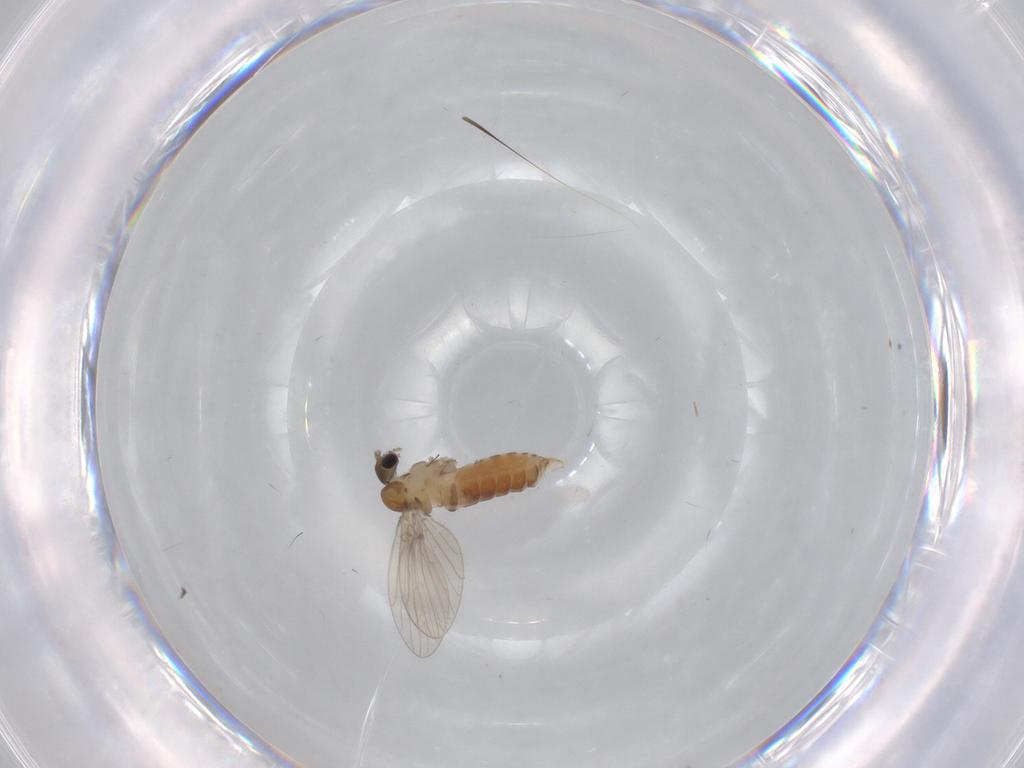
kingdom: Animalia
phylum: Arthropoda
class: Insecta
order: Diptera
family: Psychodidae
